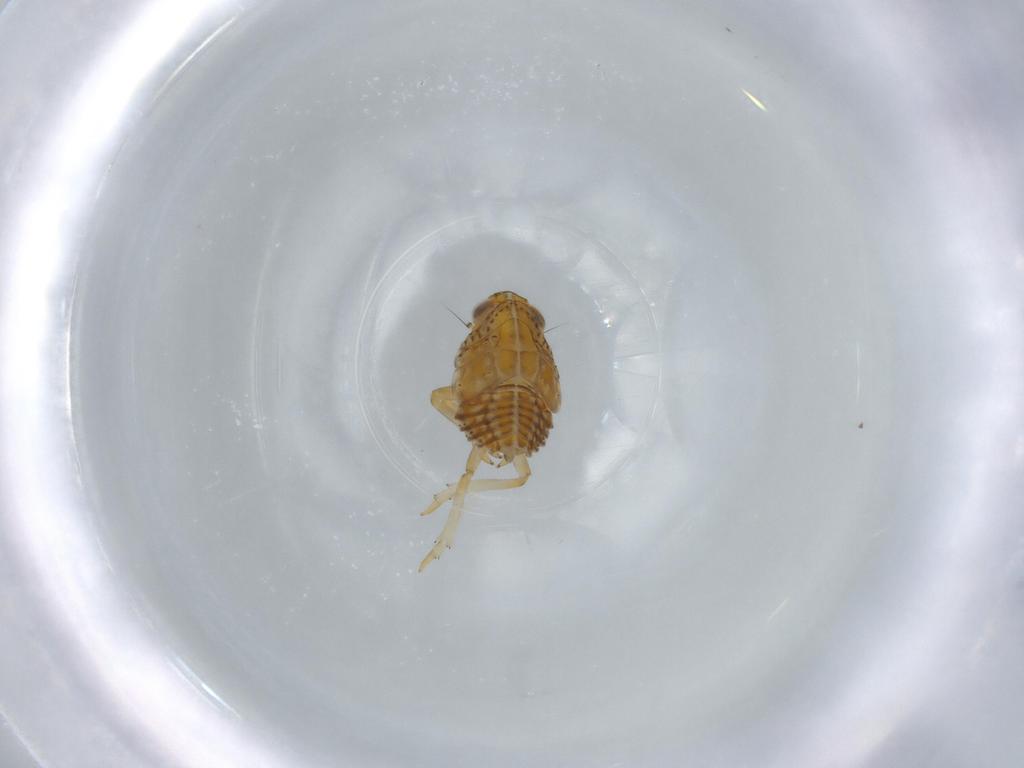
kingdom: Animalia
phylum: Arthropoda
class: Insecta
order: Hemiptera
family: Issidae
